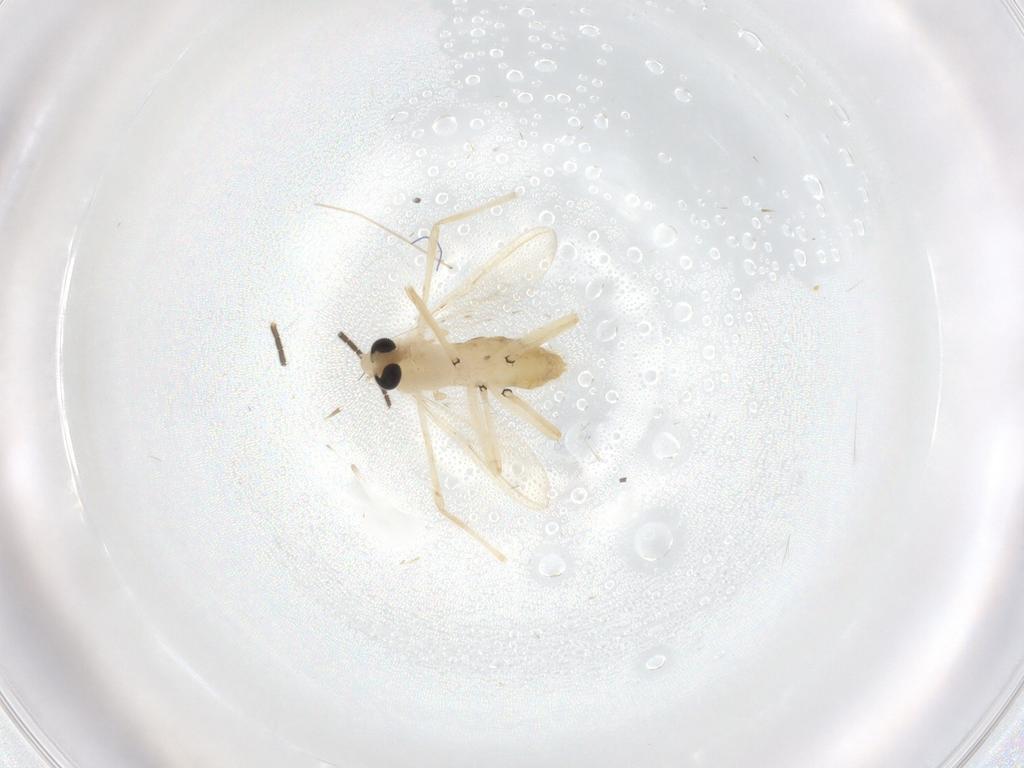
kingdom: Animalia
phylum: Arthropoda
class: Insecta
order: Diptera
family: Chironomidae
